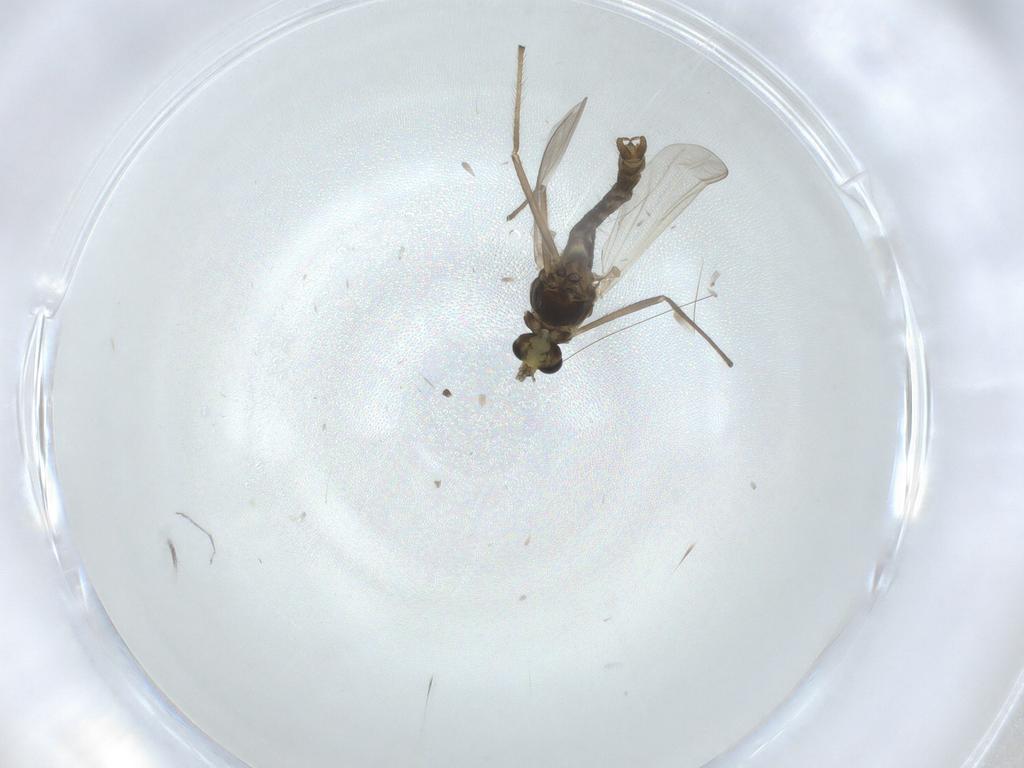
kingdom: Animalia
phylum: Arthropoda
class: Insecta
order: Diptera
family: Chironomidae
